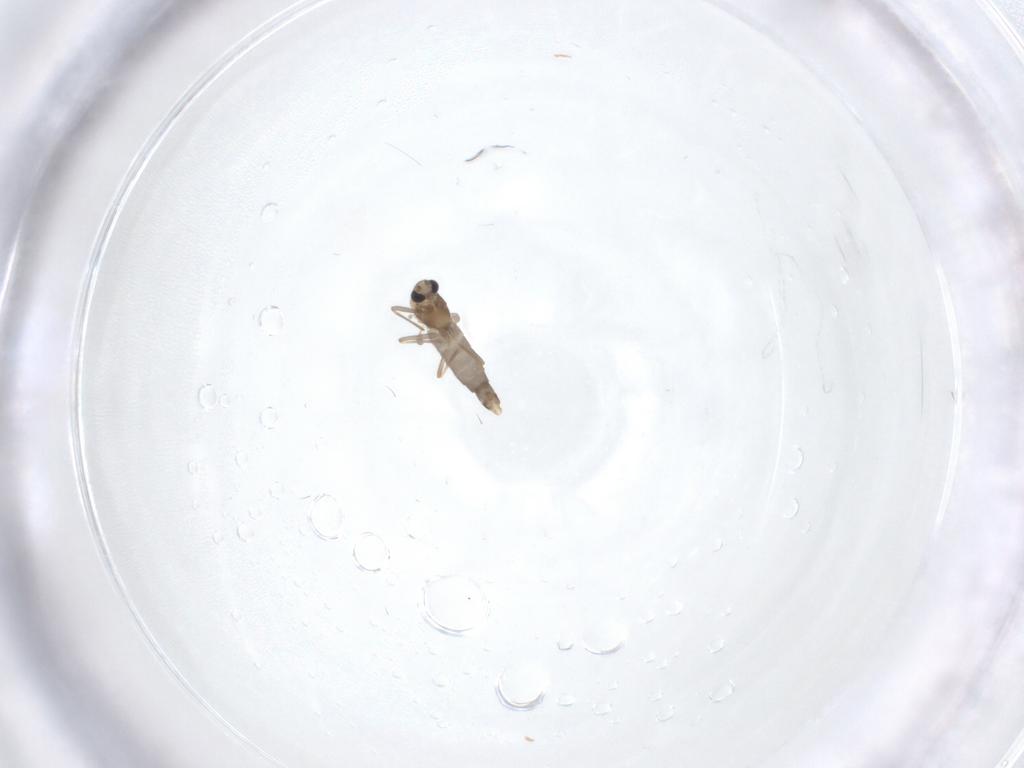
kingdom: Animalia
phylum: Arthropoda
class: Insecta
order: Diptera
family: Chironomidae
